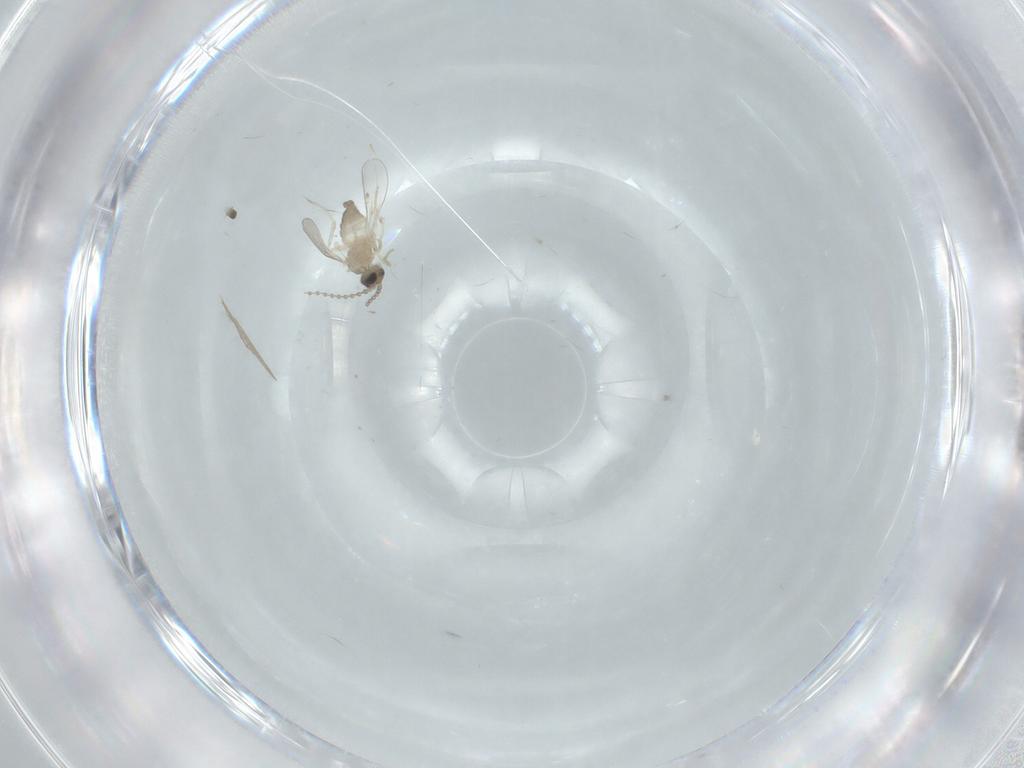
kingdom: Animalia
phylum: Arthropoda
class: Insecta
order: Diptera
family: Cecidomyiidae
